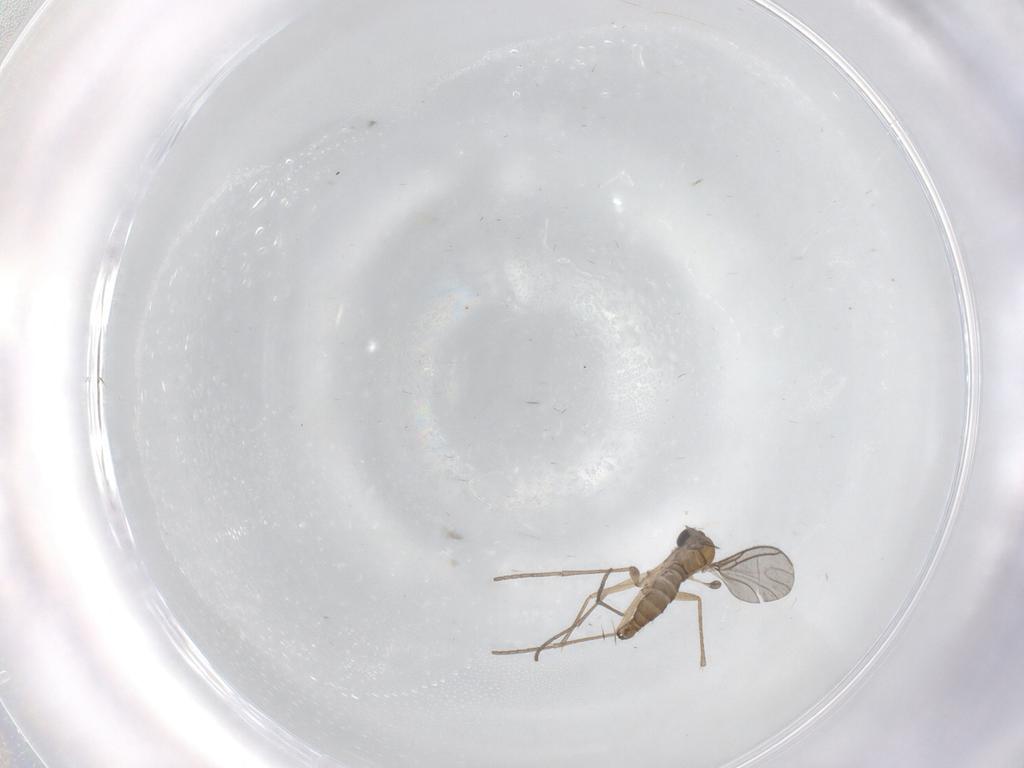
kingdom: Animalia
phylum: Arthropoda
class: Insecta
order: Diptera
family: Sciaridae
